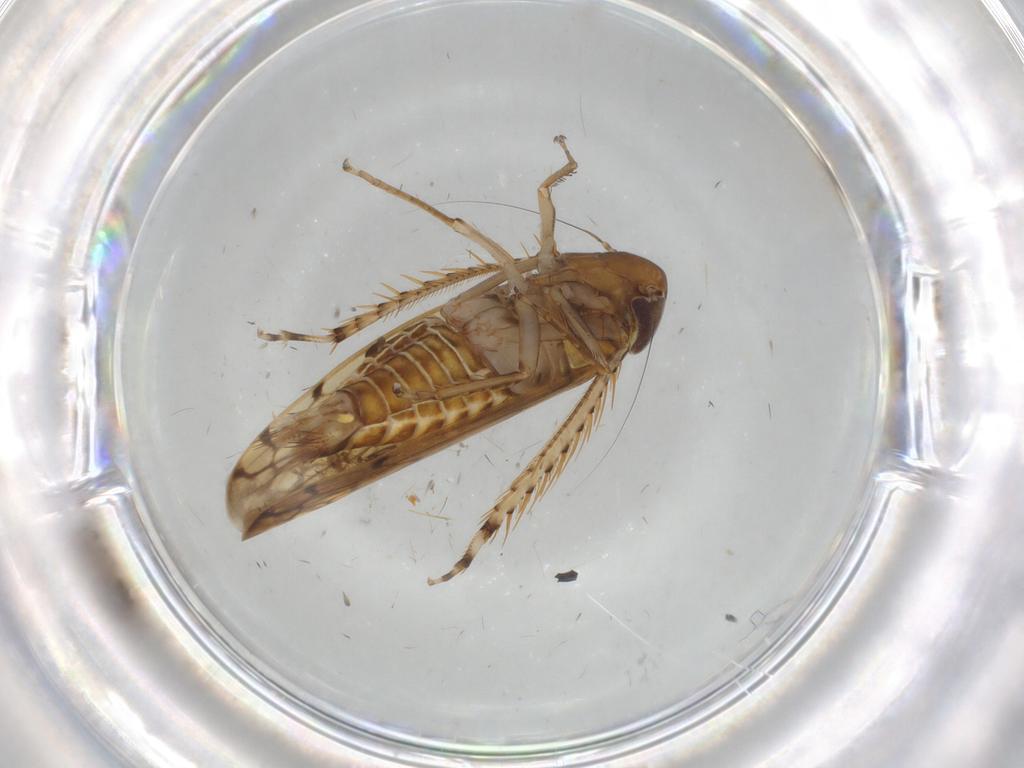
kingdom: Animalia
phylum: Arthropoda
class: Insecta
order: Hemiptera
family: Cicadellidae
